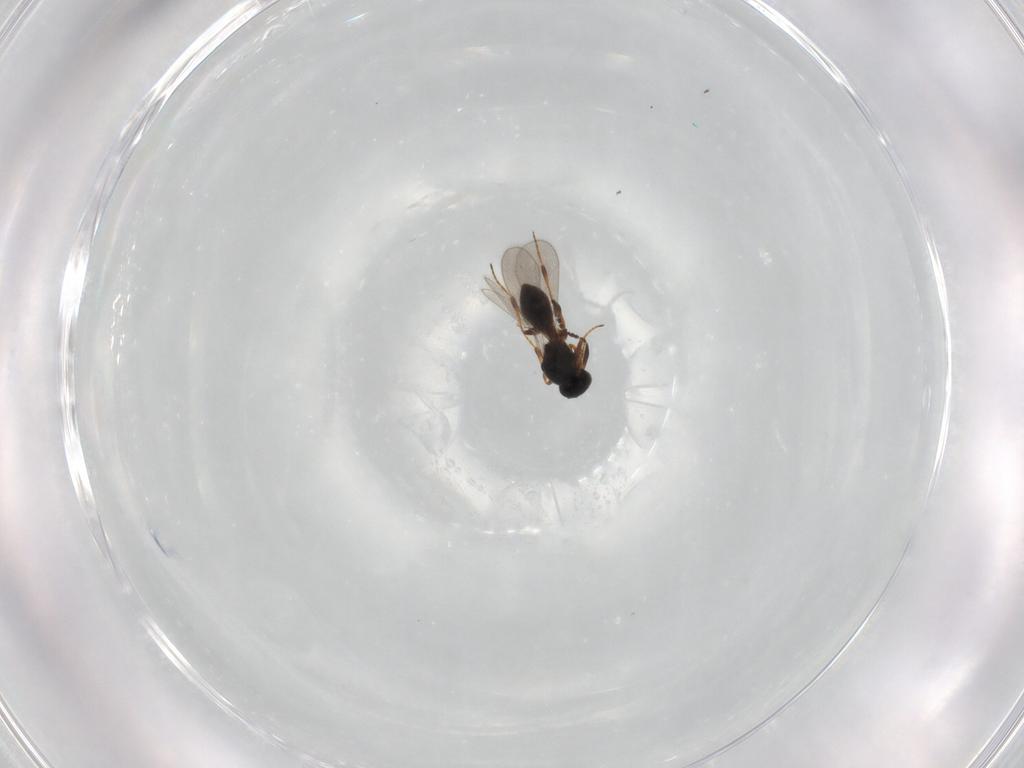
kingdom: Animalia
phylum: Arthropoda
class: Insecta
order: Hymenoptera
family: Platygastridae
